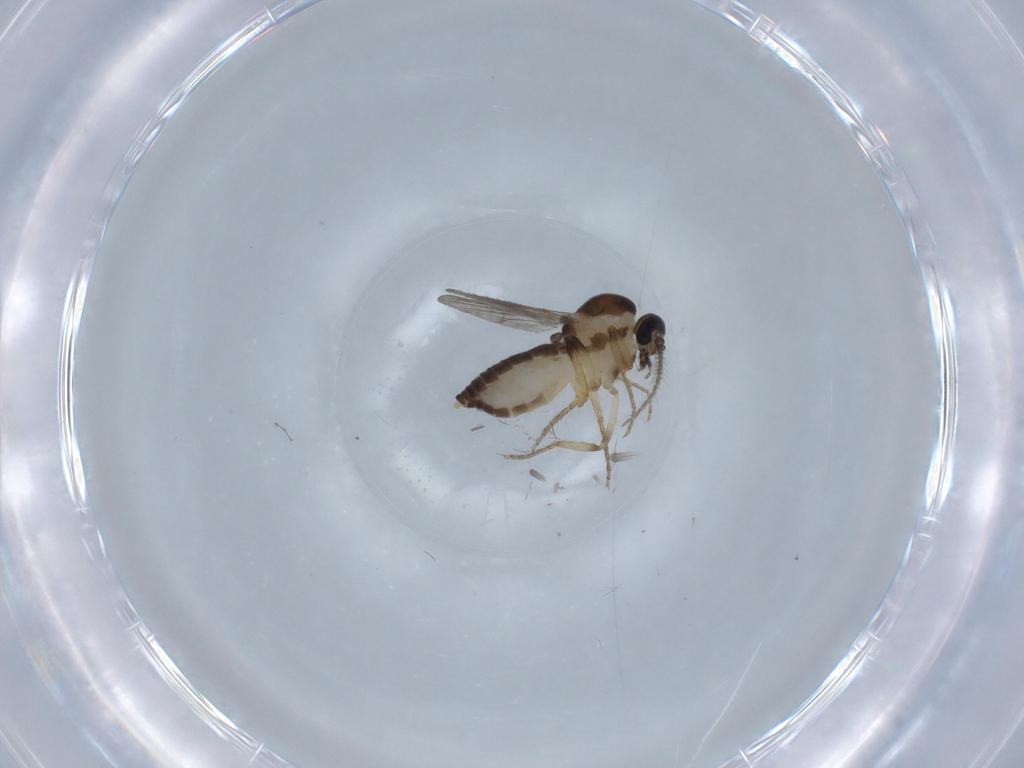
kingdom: Animalia
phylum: Arthropoda
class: Insecta
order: Diptera
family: Ceratopogonidae
